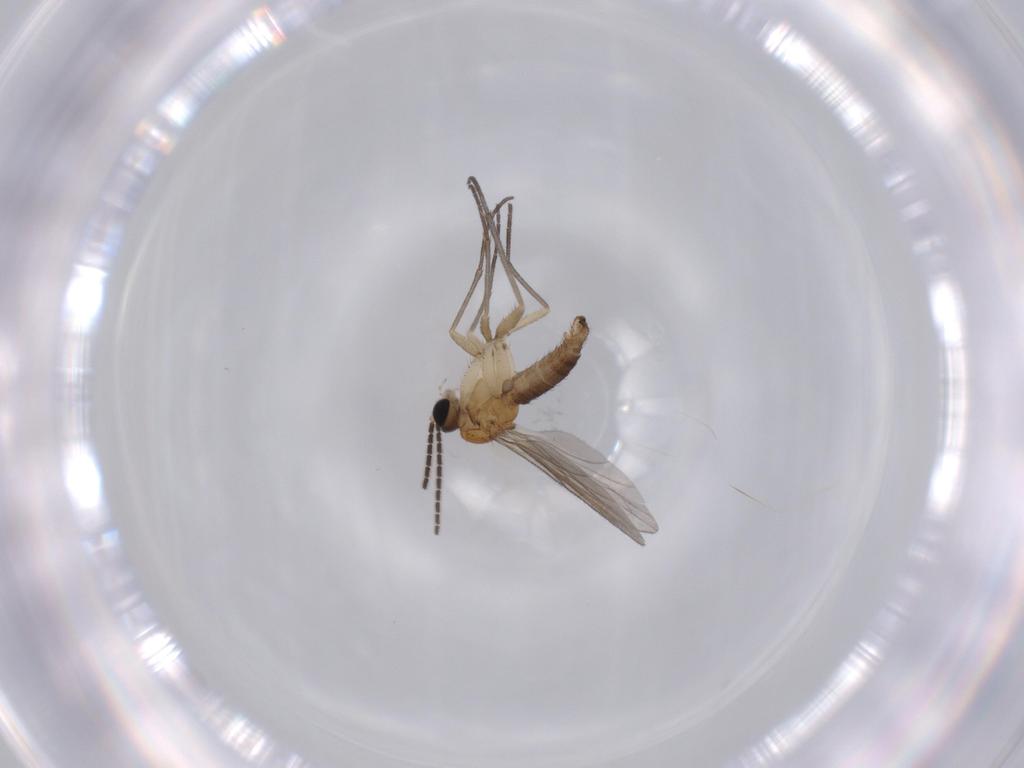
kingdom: Animalia
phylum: Arthropoda
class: Insecta
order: Diptera
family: Sciaridae
